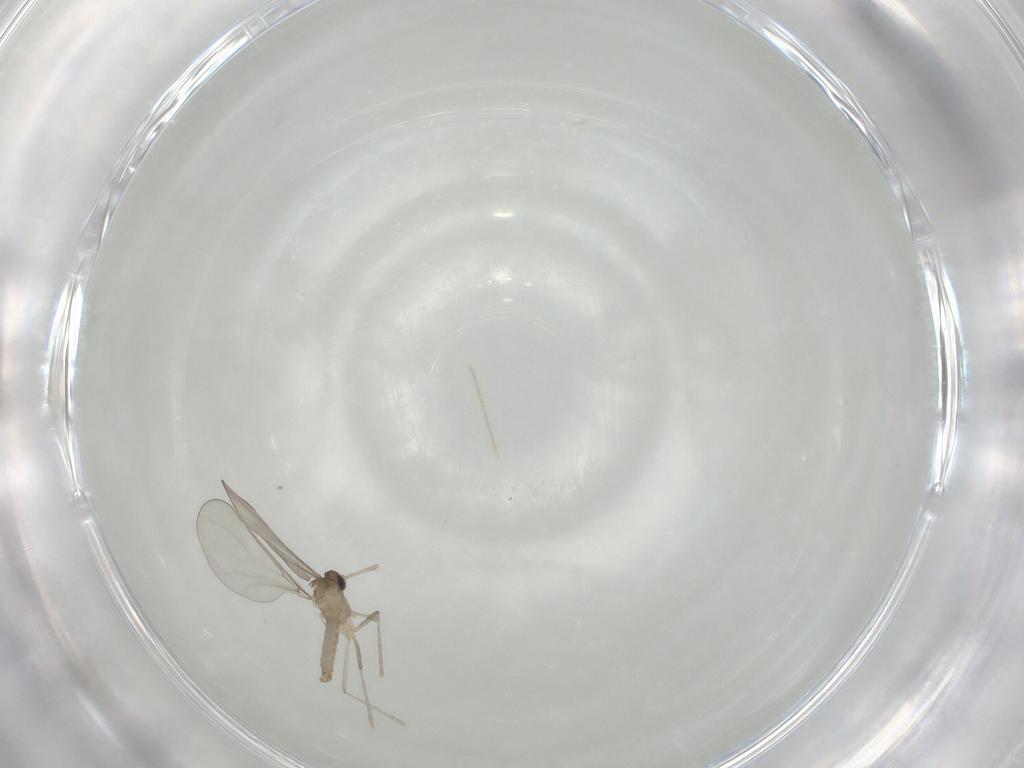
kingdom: Animalia
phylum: Arthropoda
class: Insecta
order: Diptera
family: Cecidomyiidae
